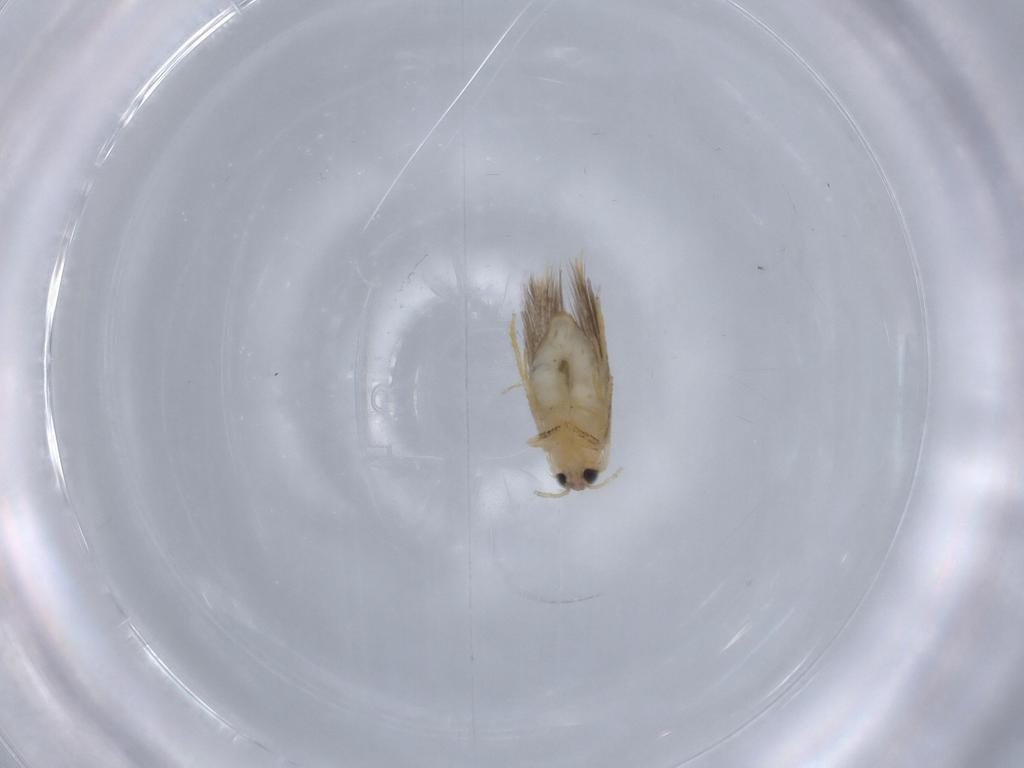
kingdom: Animalia
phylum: Arthropoda
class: Insecta
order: Lepidoptera
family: Nepticulidae
